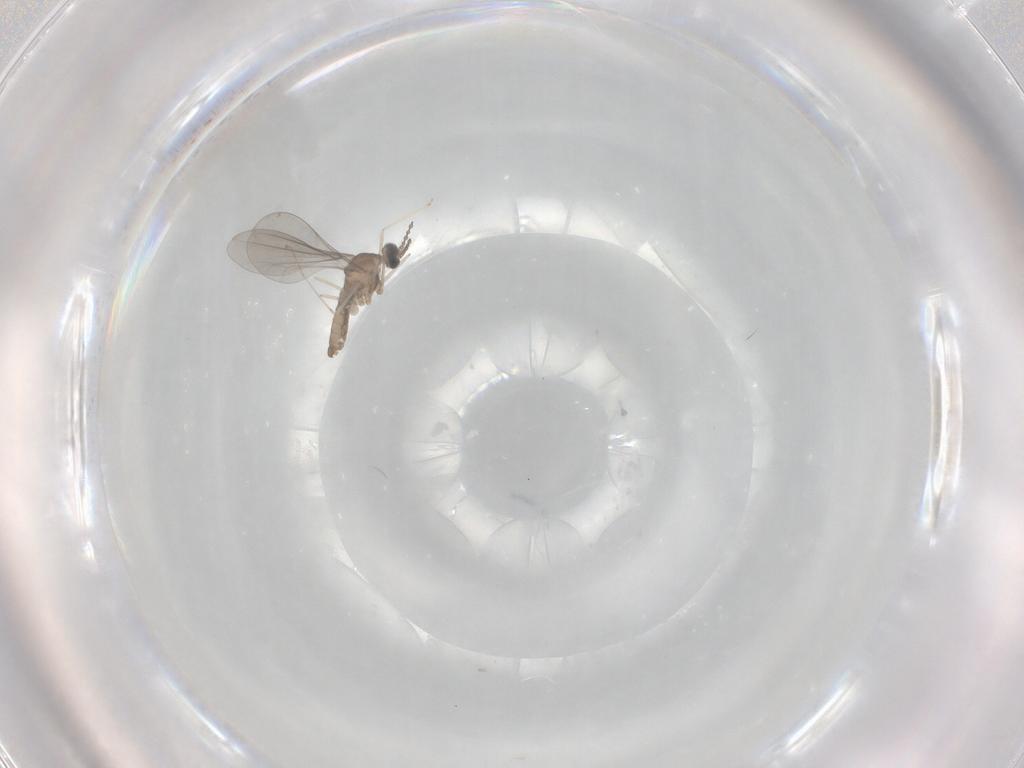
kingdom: Animalia
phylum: Arthropoda
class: Insecta
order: Diptera
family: Cecidomyiidae
